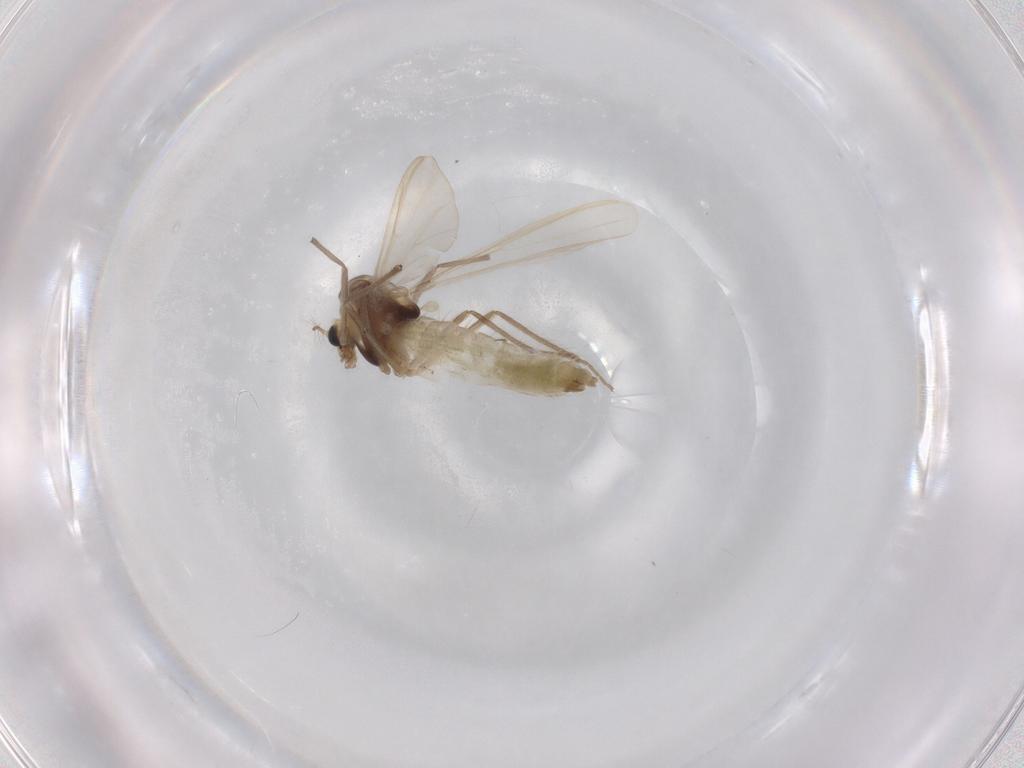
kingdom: Animalia
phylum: Arthropoda
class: Insecta
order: Diptera
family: Chironomidae
